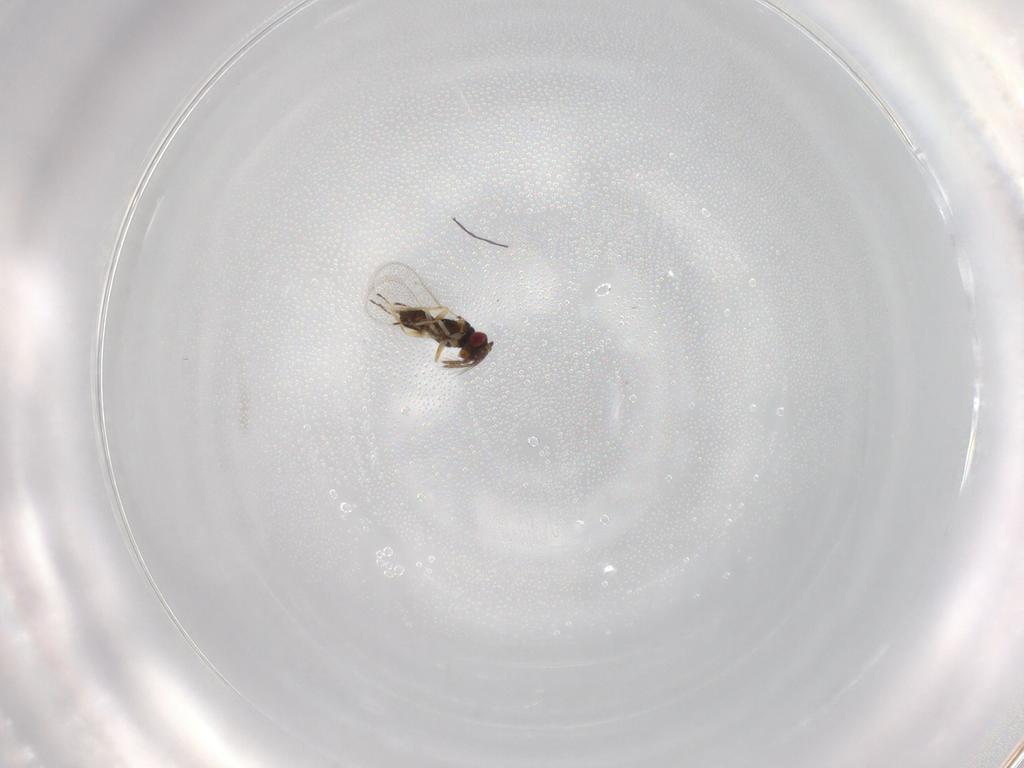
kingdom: Animalia
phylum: Arthropoda
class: Insecta
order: Hymenoptera
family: Eulophidae
